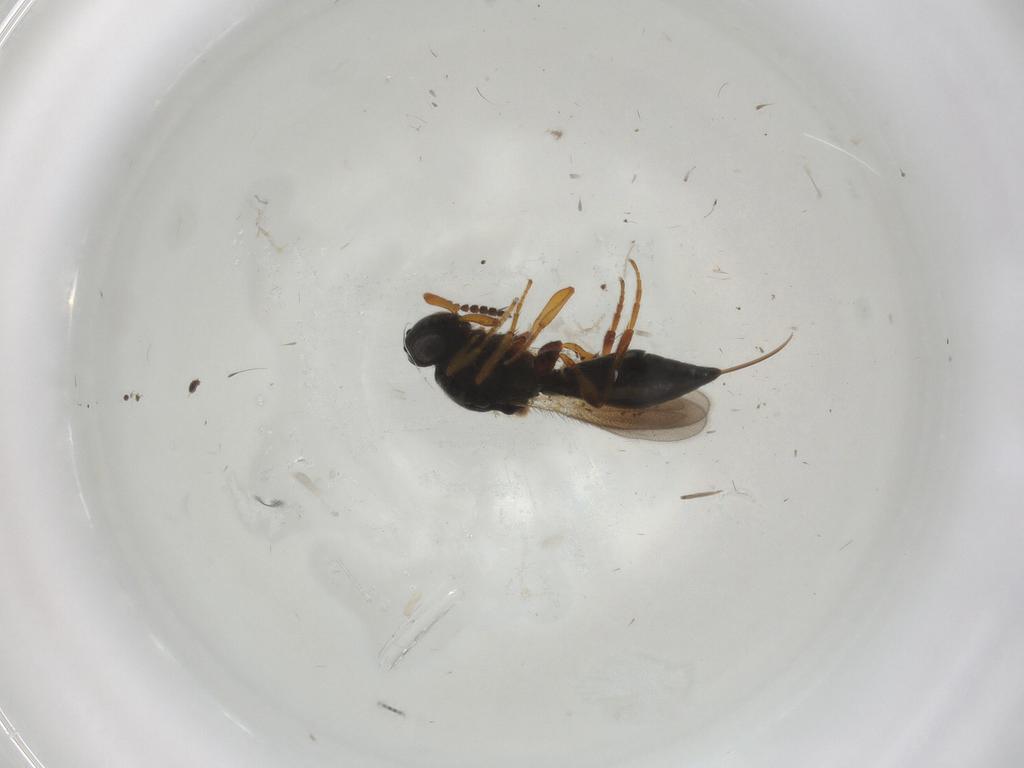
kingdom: Animalia
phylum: Arthropoda
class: Insecta
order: Hymenoptera
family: Platygastridae
